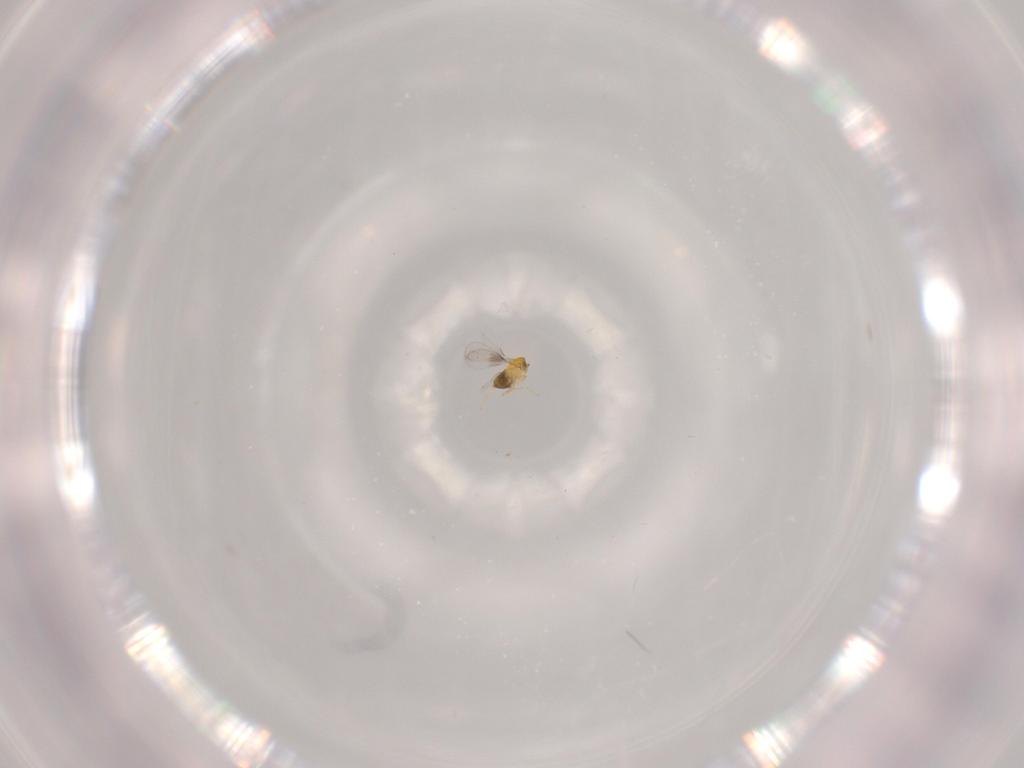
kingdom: Animalia
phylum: Arthropoda
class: Insecta
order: Hymenoptera
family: Trichogrammatidae
